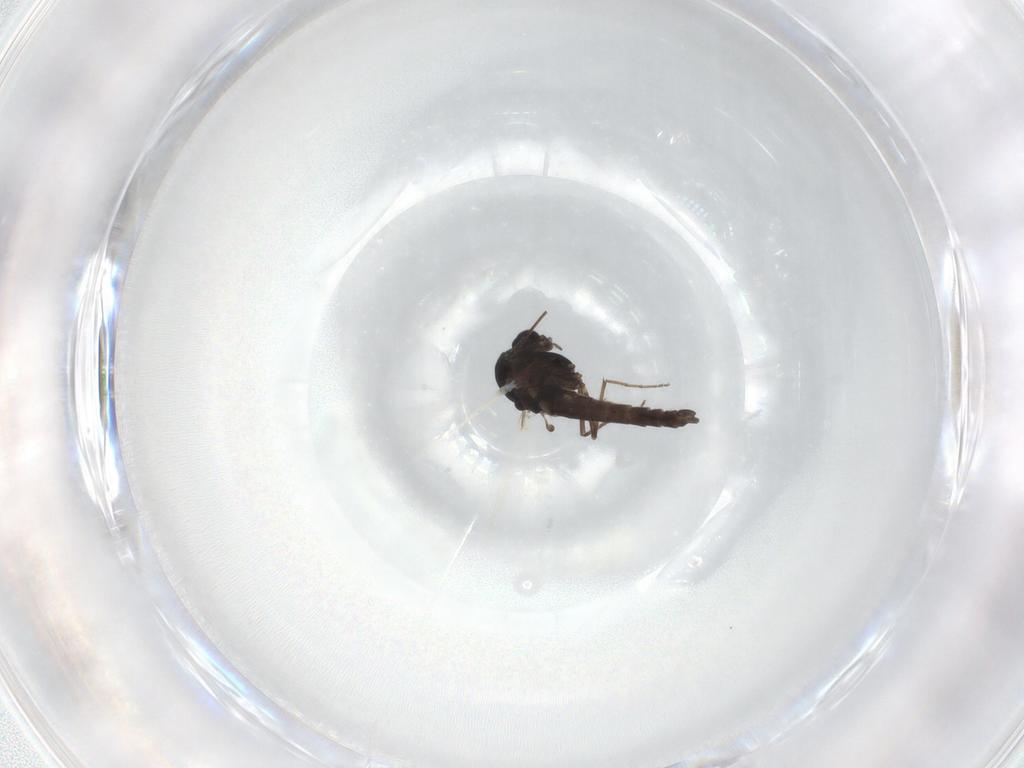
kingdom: Animalia
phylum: Arthropoda
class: Insecta
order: Diptera
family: Chironomidae
